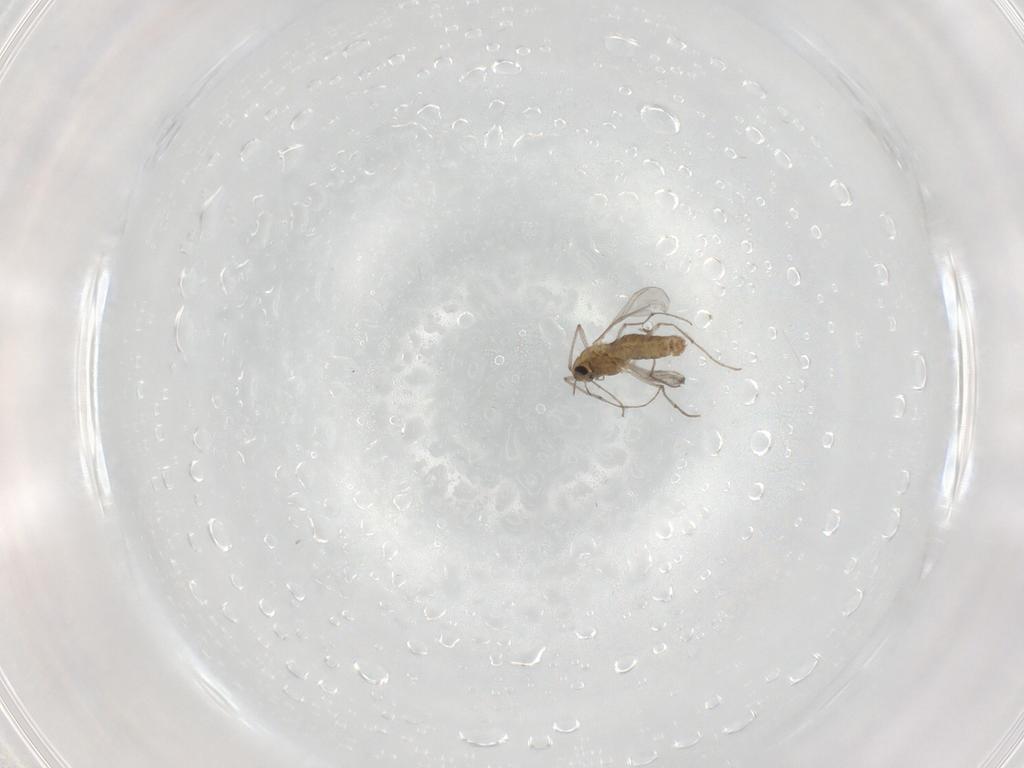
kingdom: Animalia
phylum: Arthropoda
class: Insecta
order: Diptera
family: Chironomidae
